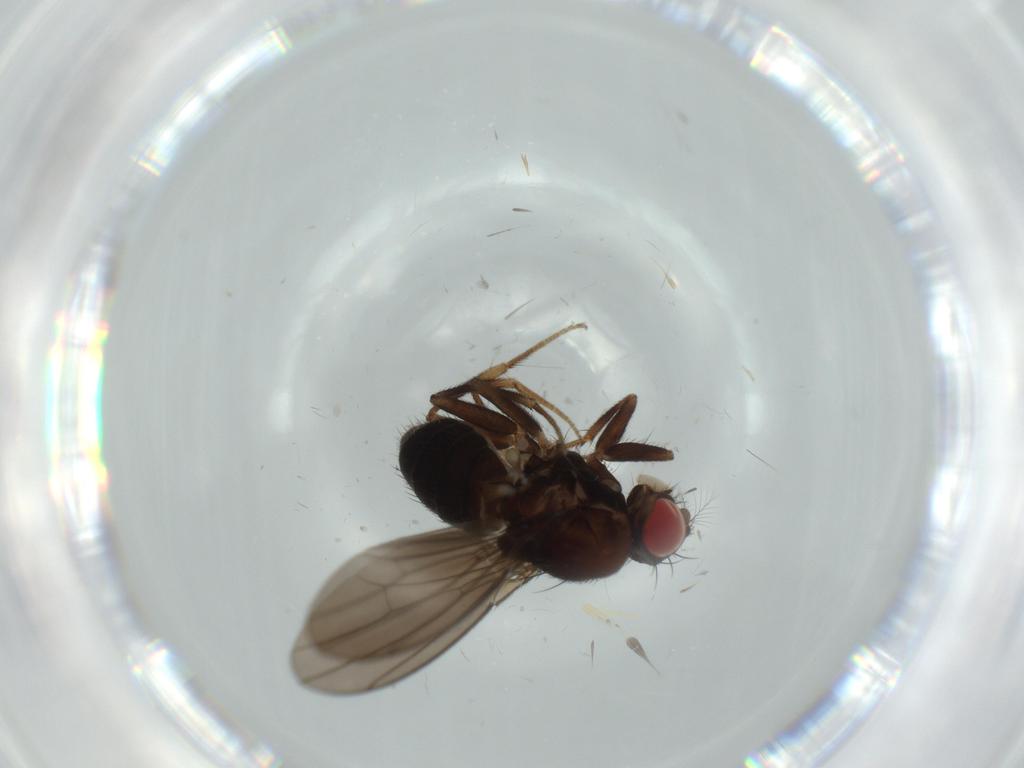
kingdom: Animalia
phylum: Arthropoda
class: Insecta
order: Diptera
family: Drosophilidae
